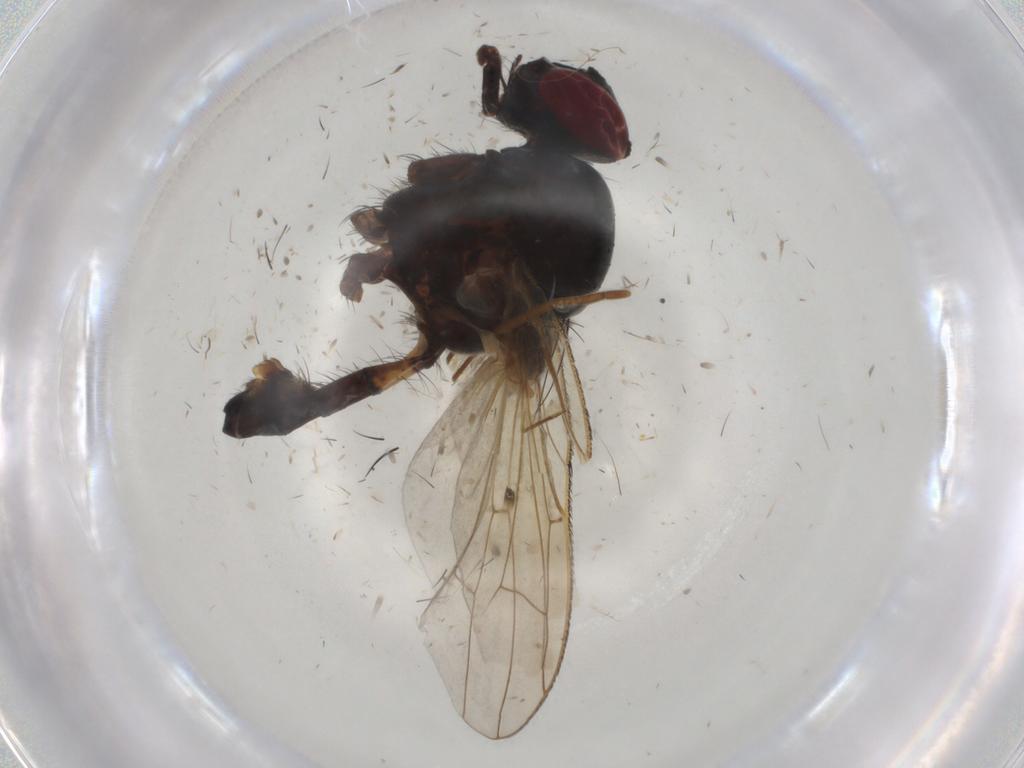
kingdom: Animalia
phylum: Arthropoda
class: Insecta
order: Diptera
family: Anthomyiidae
